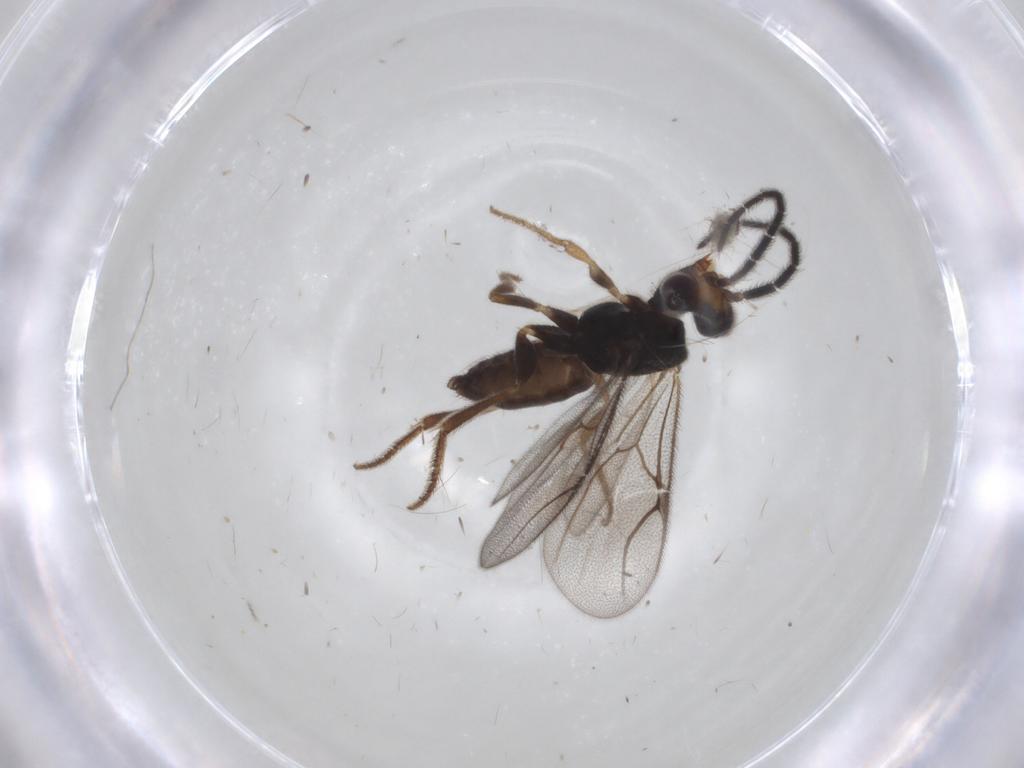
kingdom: Animalia
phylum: Arthropoda
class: Insecta
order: Hymenoptera
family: Dryinidae
